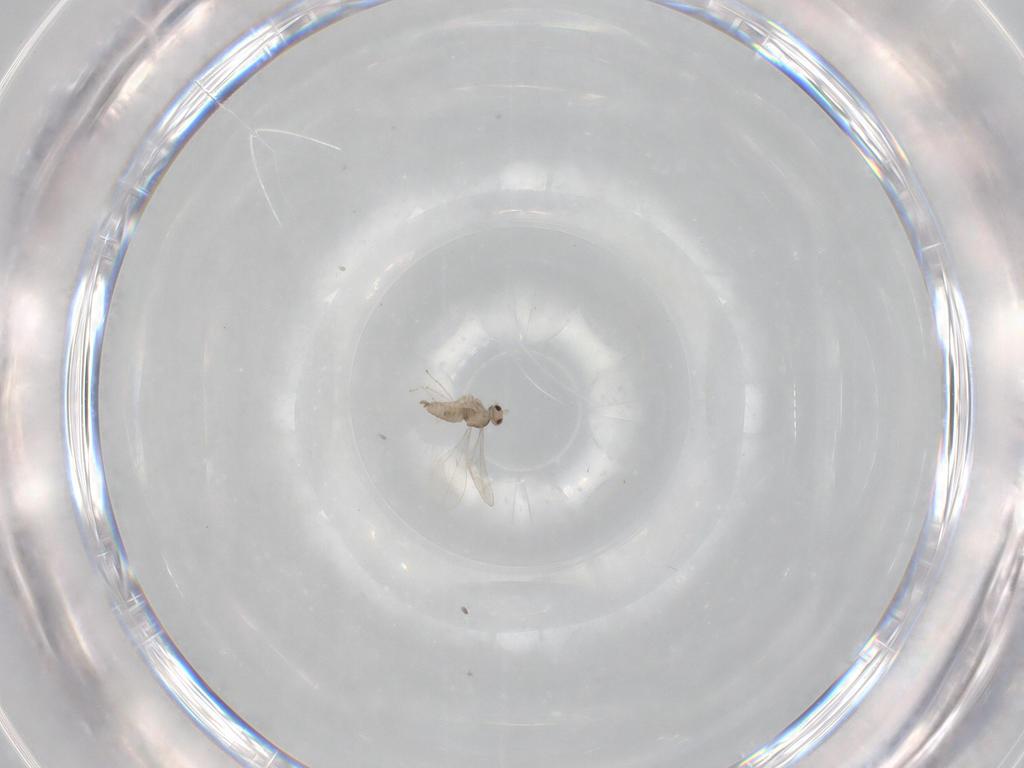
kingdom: Animalia
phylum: Arthropoda
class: Insecta
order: Diptera
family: Cecidomyiidae
